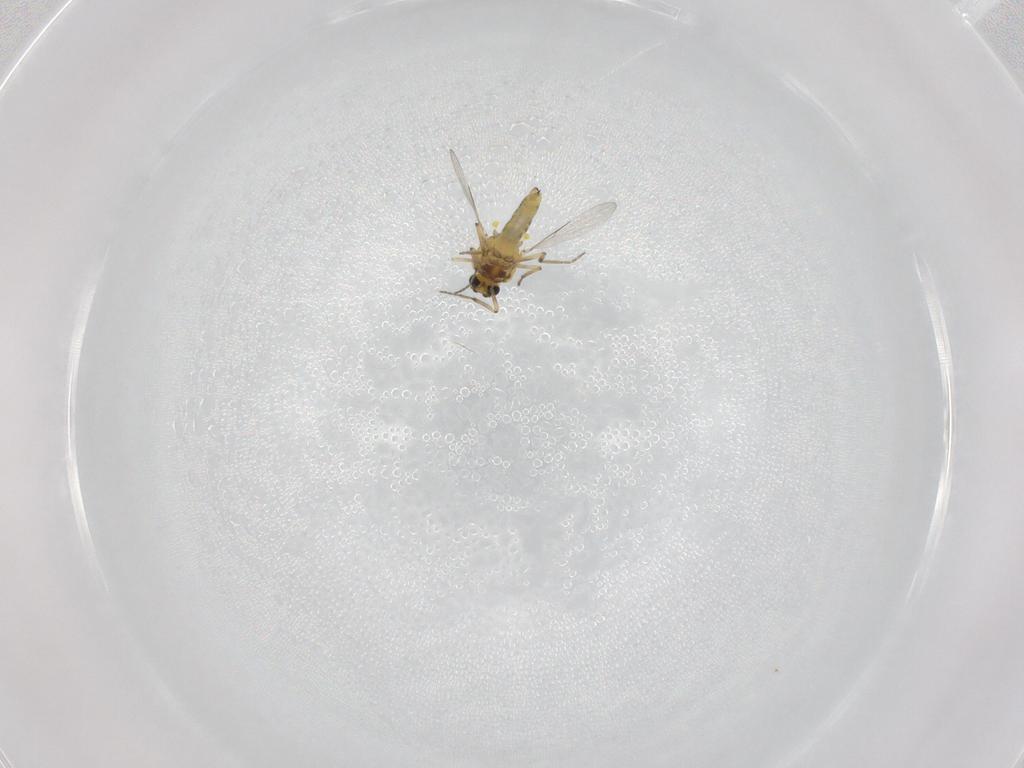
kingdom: Animalia
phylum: Arthropoda
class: Insecta
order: Diptera
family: Ceratopogonidae
